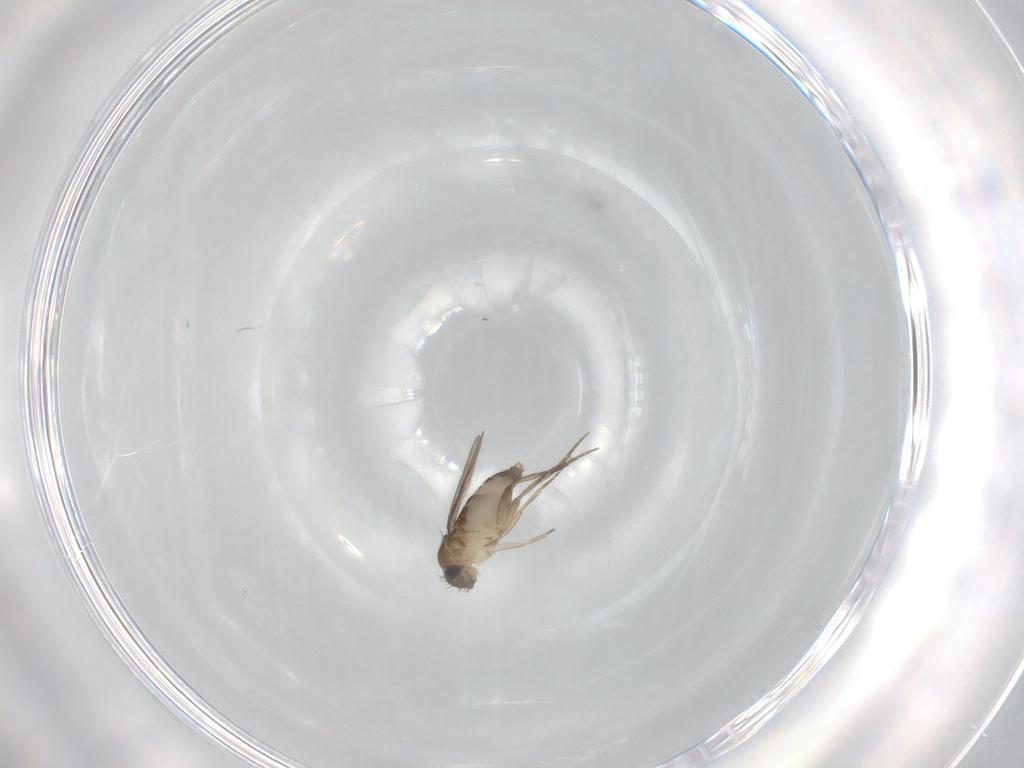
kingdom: Animalia
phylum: Arthropoda
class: Insecta
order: Diptera
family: Phoridae
